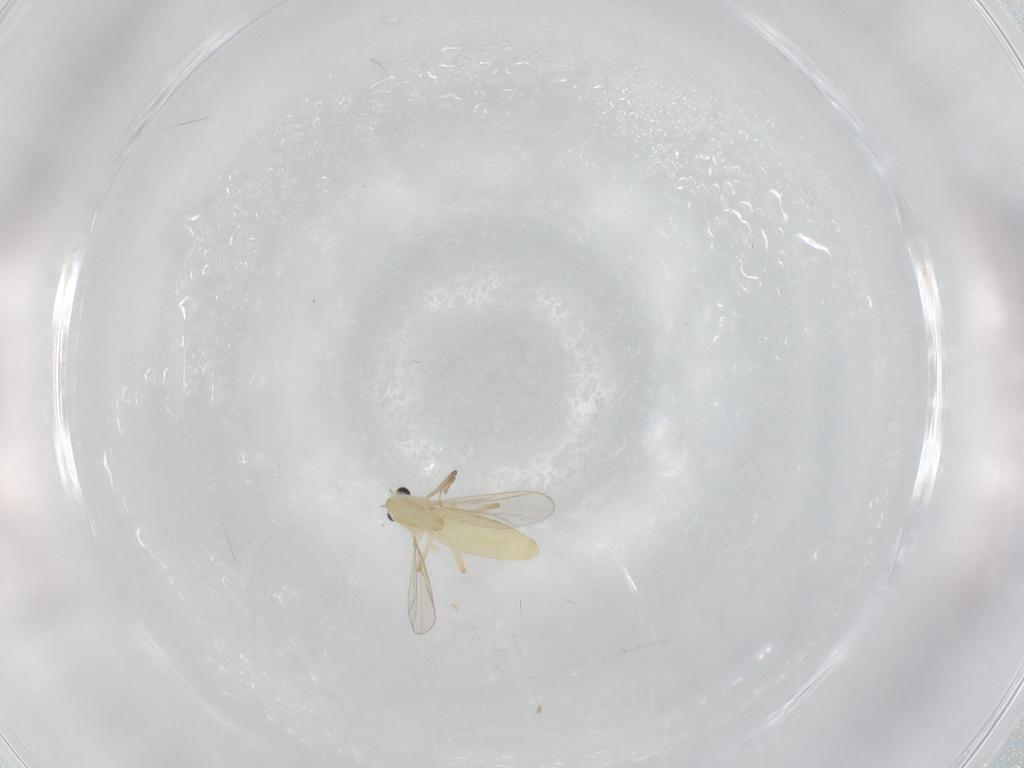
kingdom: Animalia
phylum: Arthropoda
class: Insecta
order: Diptera
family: Chironomidae
